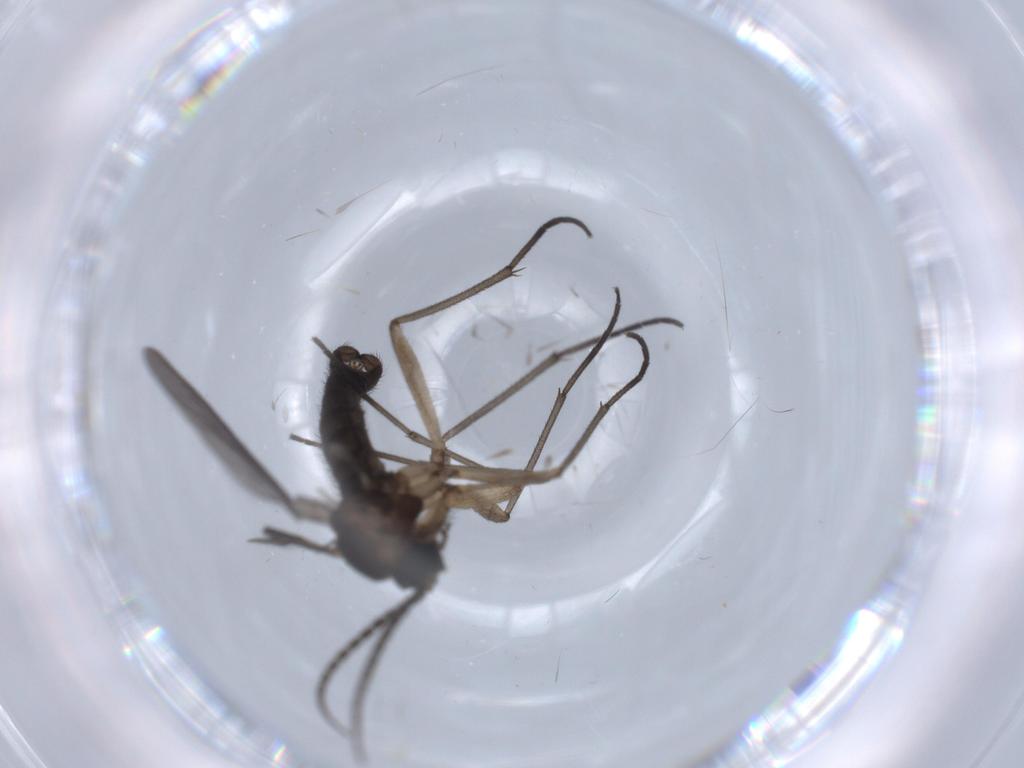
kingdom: Animalia
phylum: Arthropoda
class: Insecta
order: Diptera
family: Sciaridae
